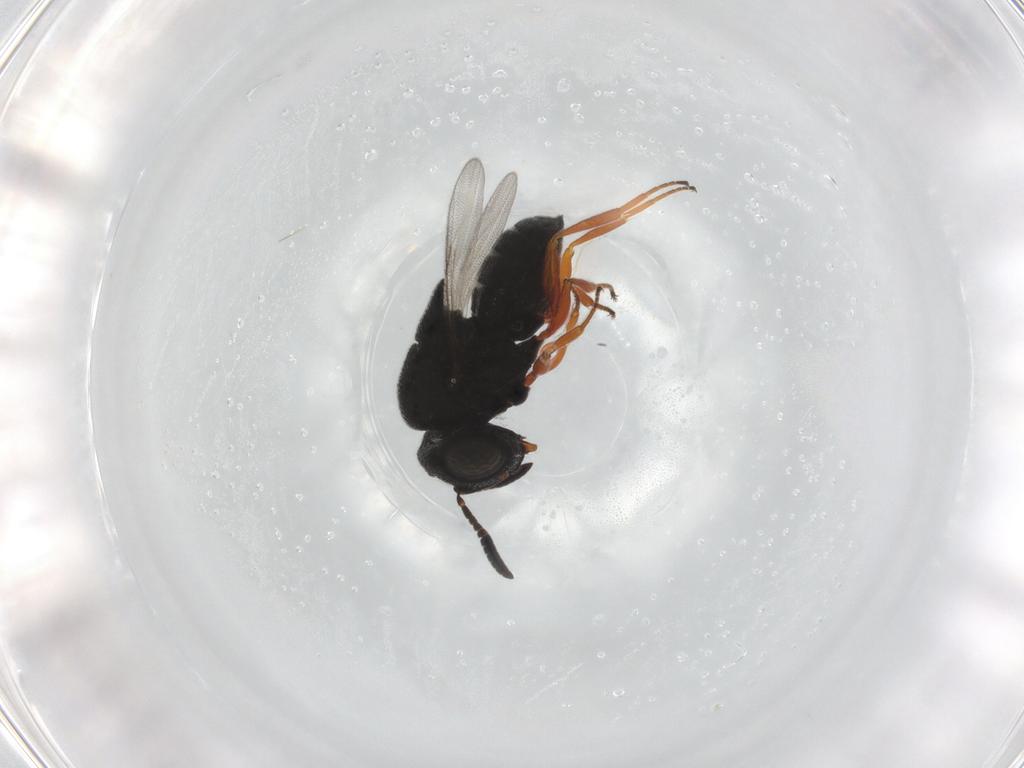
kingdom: Animalia
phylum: Arthropoda
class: Insecta
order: Hymenoptera
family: Scelionidae
